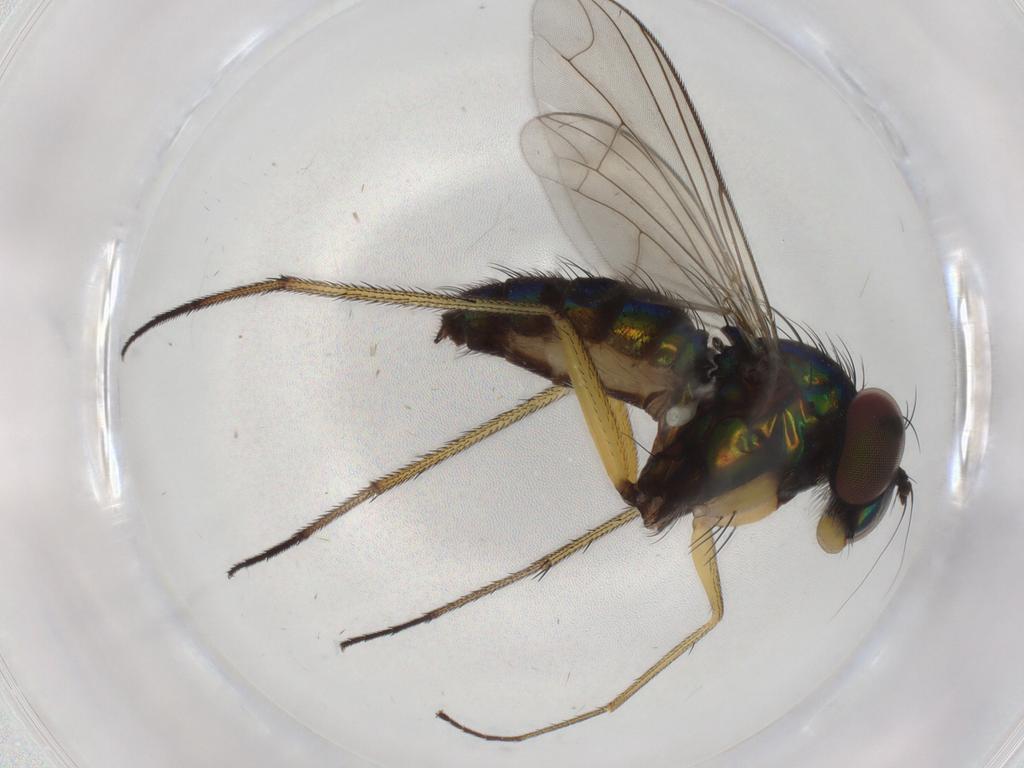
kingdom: Animalia
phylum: Arthropoda
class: Insecta
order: Diptera
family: Dolichopodidae
